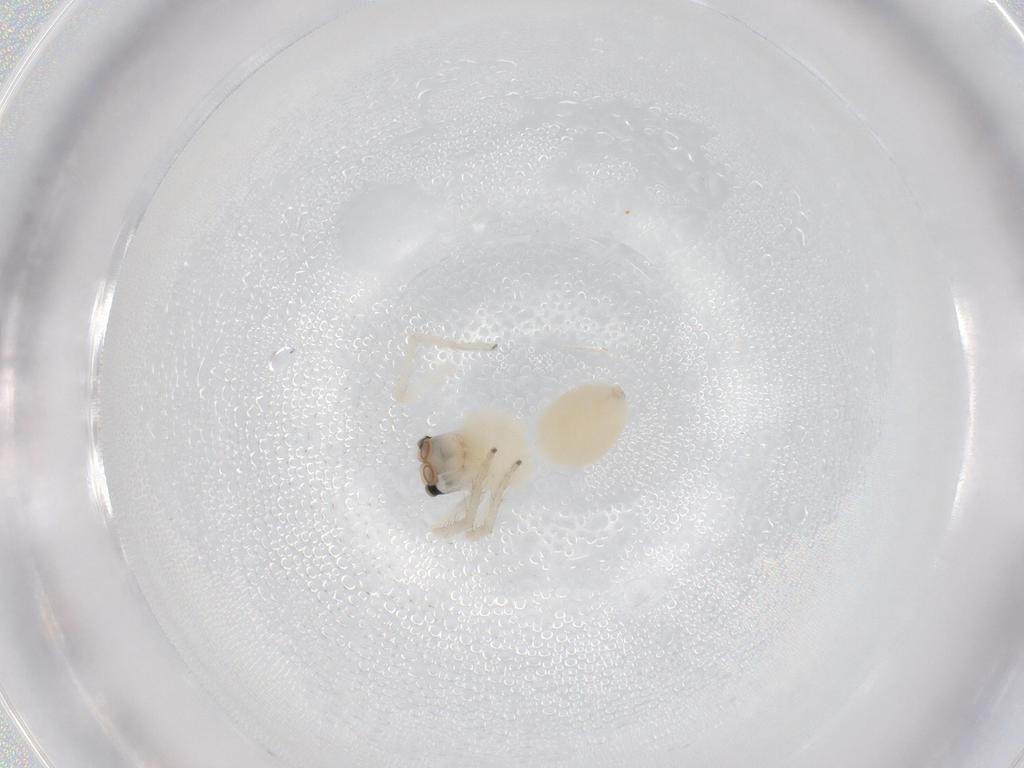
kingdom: Animalia
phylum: Arthropoda
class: Arachnida
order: Araneae
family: Salticidae
